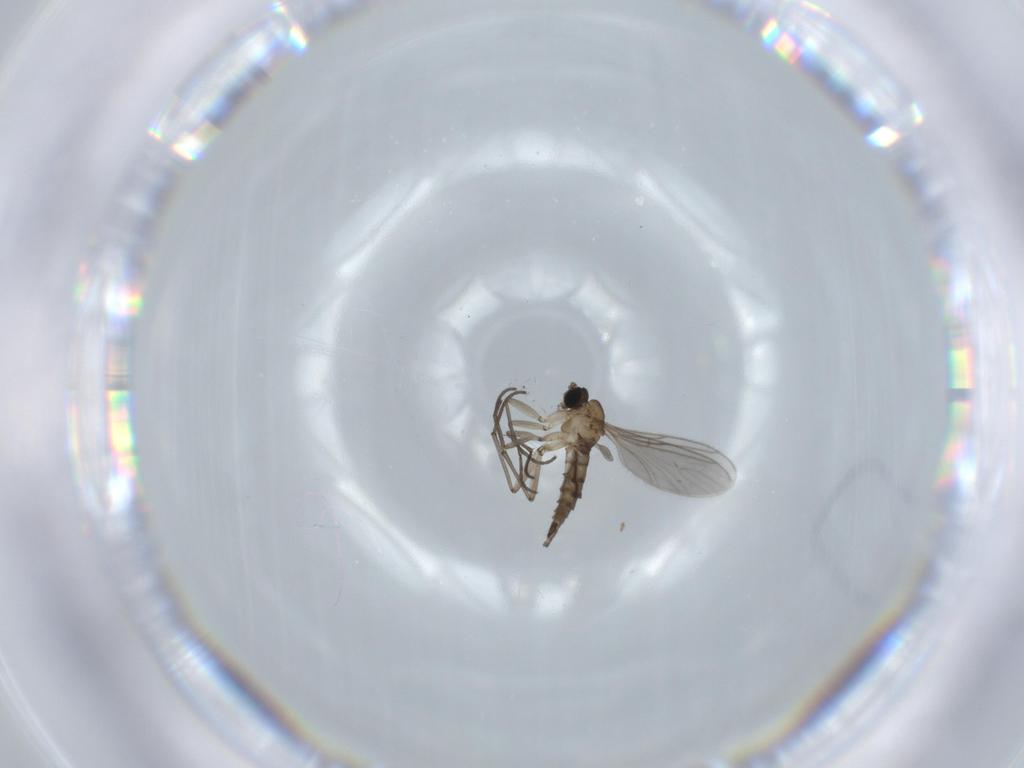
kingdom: Animalia
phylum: Arthropoda
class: Insecta
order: Diptera
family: Sciaridae
